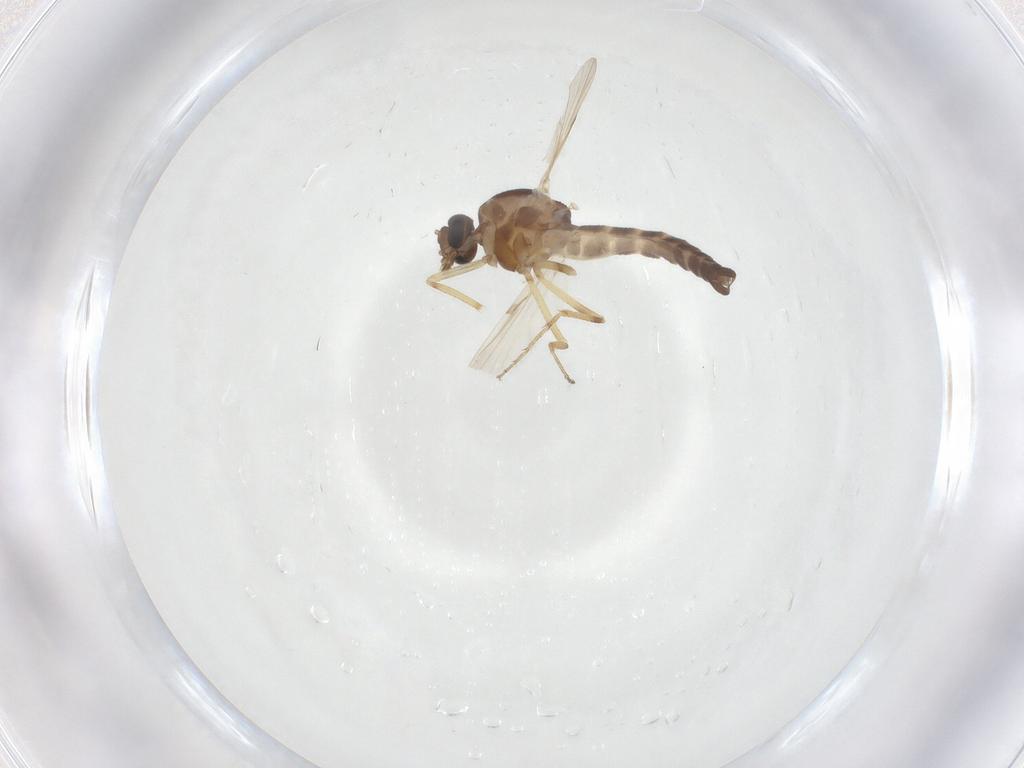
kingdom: Animalia
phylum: Arthropoda
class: Insecta
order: Diptera
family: Ceratopogonidae
